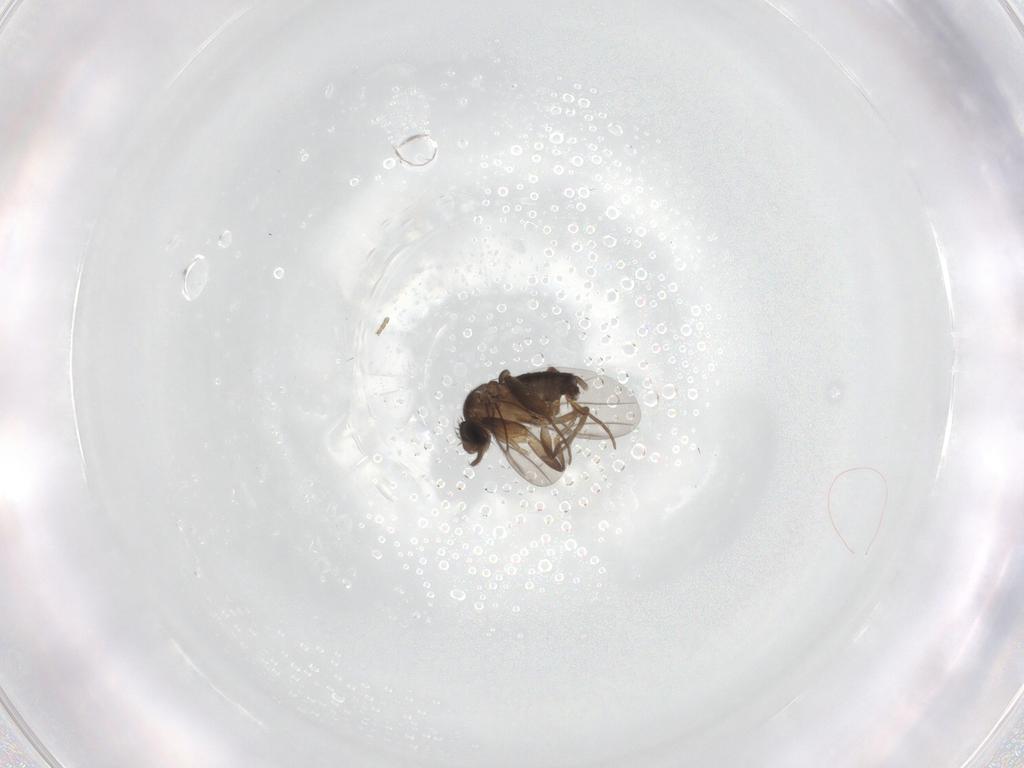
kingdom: Animalia
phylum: Arthropoda
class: Insecta
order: Diptera
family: Phoridae
